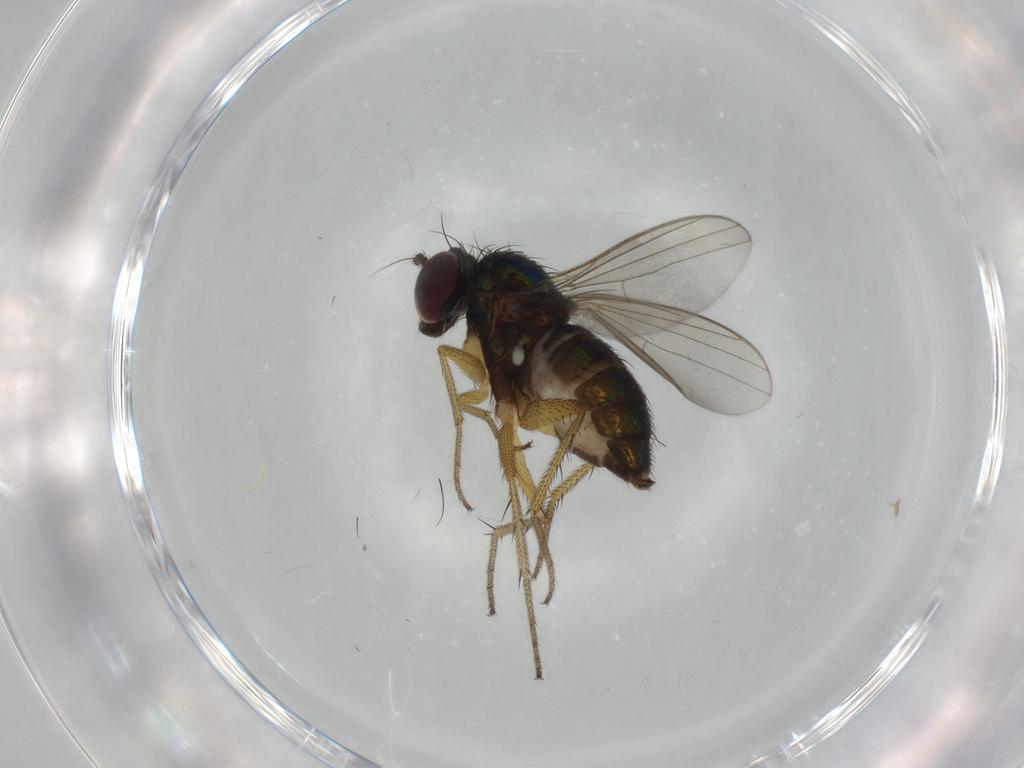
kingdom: Animalia
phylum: Arthropoda
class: Insecta
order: Diptera
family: Dolichopodidae
